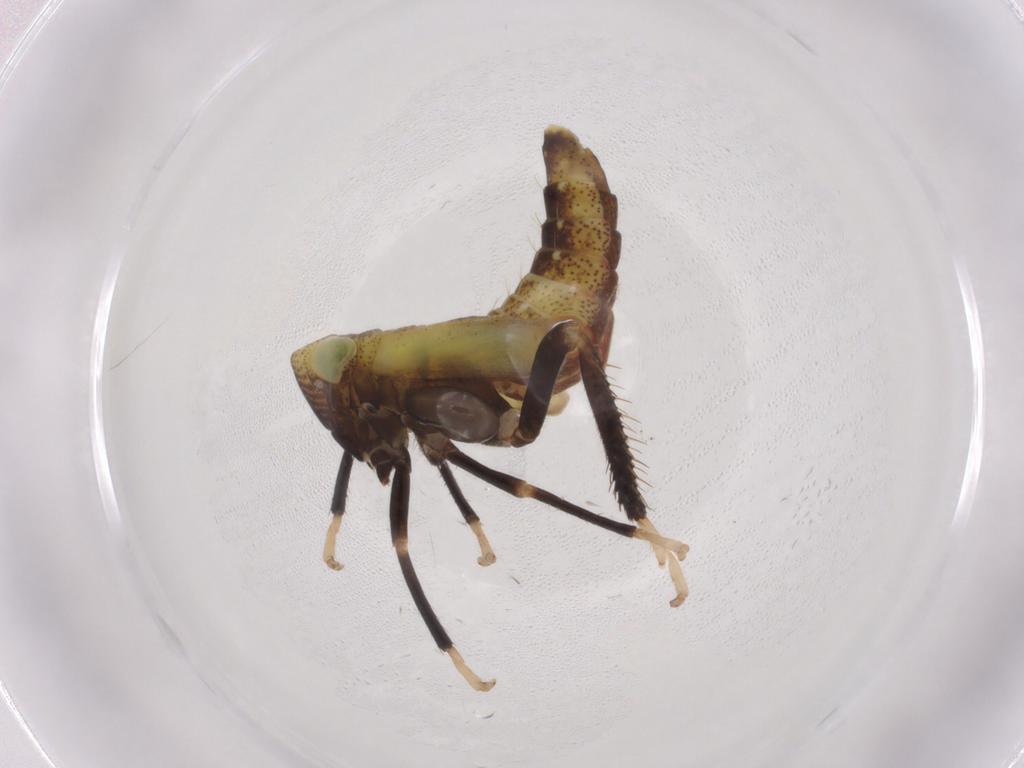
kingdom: Animalia
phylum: Arthropoda
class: Insecta
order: Hemiptera
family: Cicadellidae
